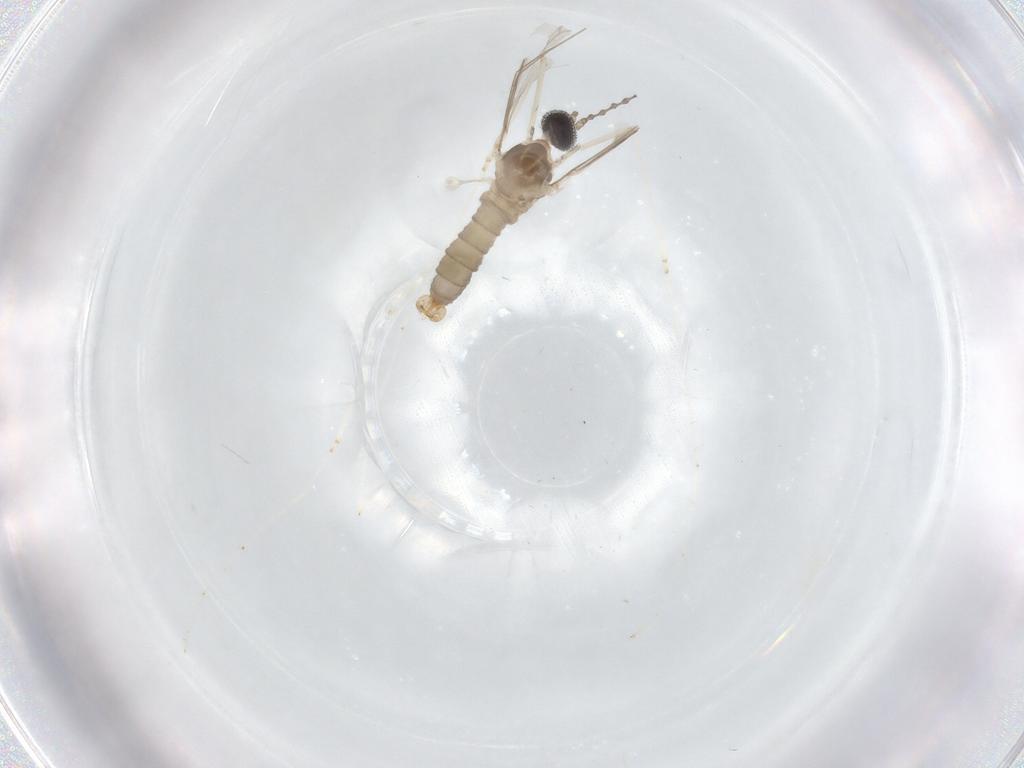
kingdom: Animalia
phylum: Arthropoda
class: Insecta
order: Diptera
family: Cecidomyiidae
